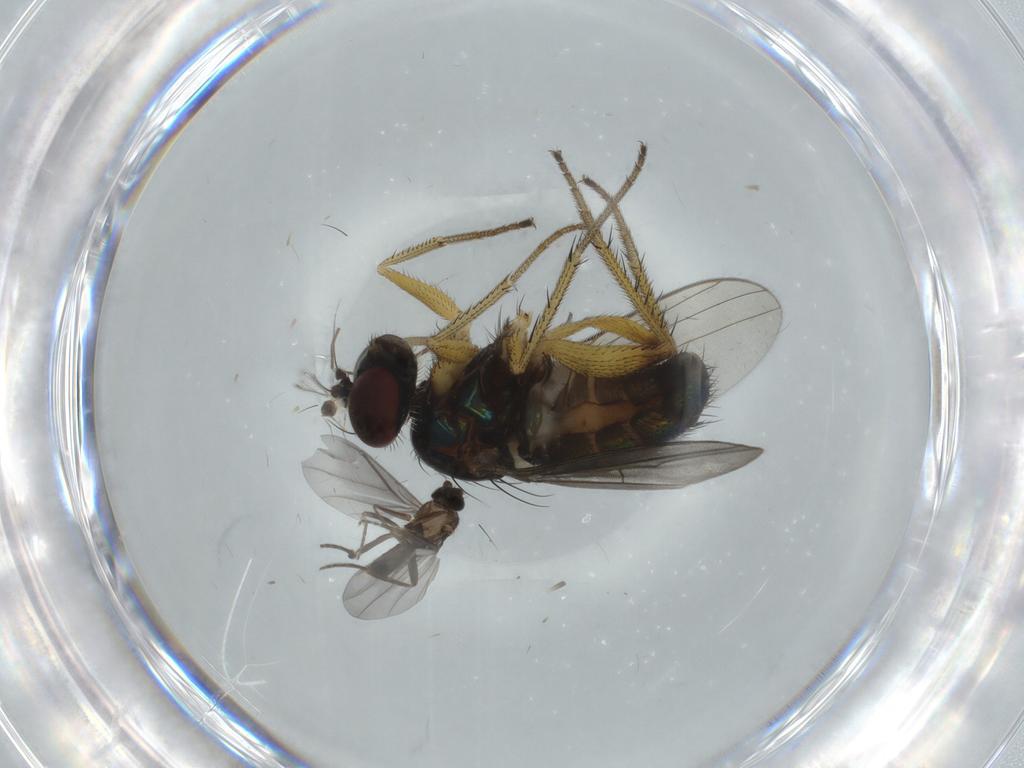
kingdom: Animalia
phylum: Arthropoda
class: Insecta
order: Diptera
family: Dolichopodidae
